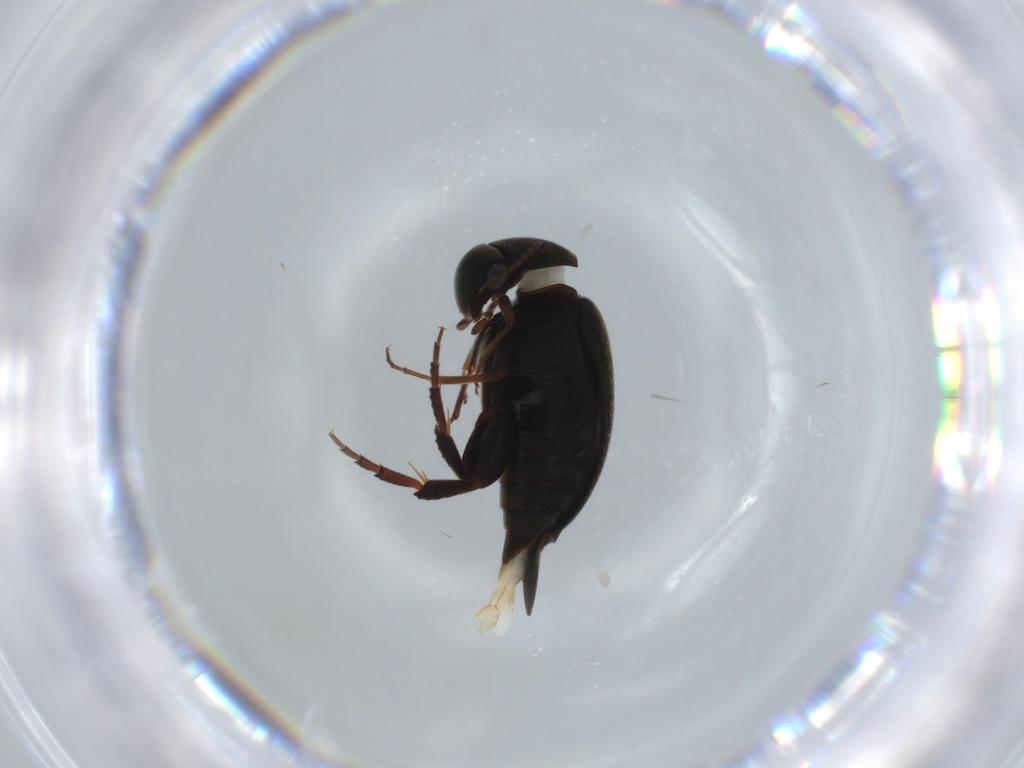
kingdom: Animalia
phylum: Arthropoda
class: Insecta
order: Coleoptera
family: Mordellidae
